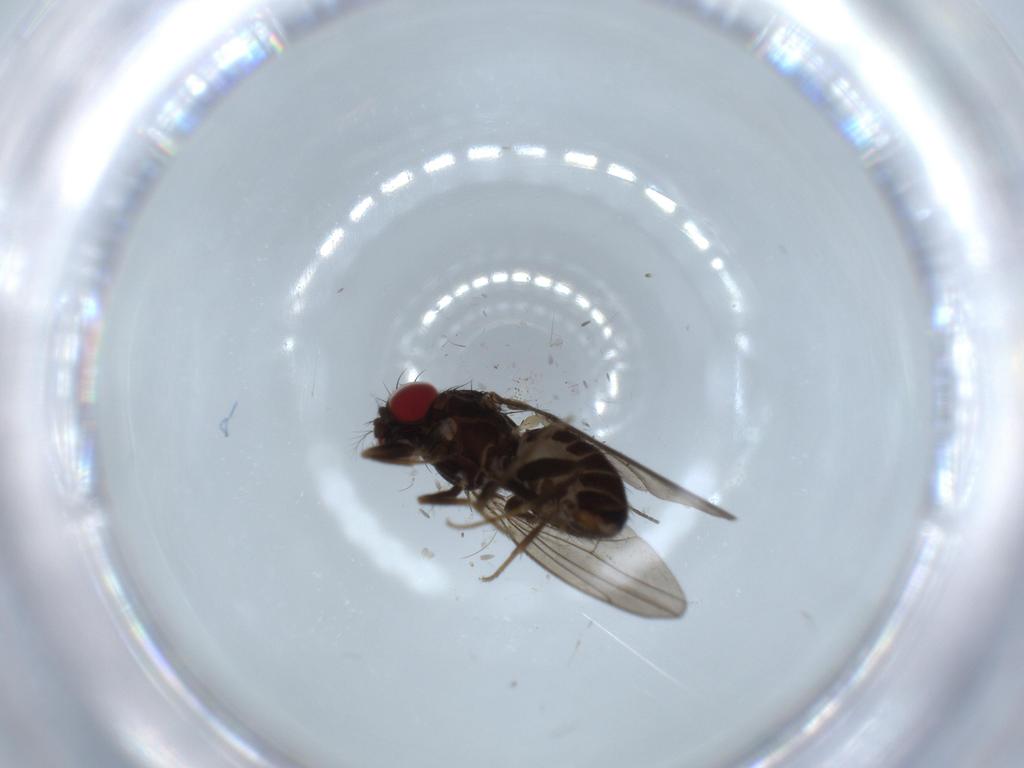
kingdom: Animalia
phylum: Arthropoda
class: Insecta
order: Diptera
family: Drosophilidae
